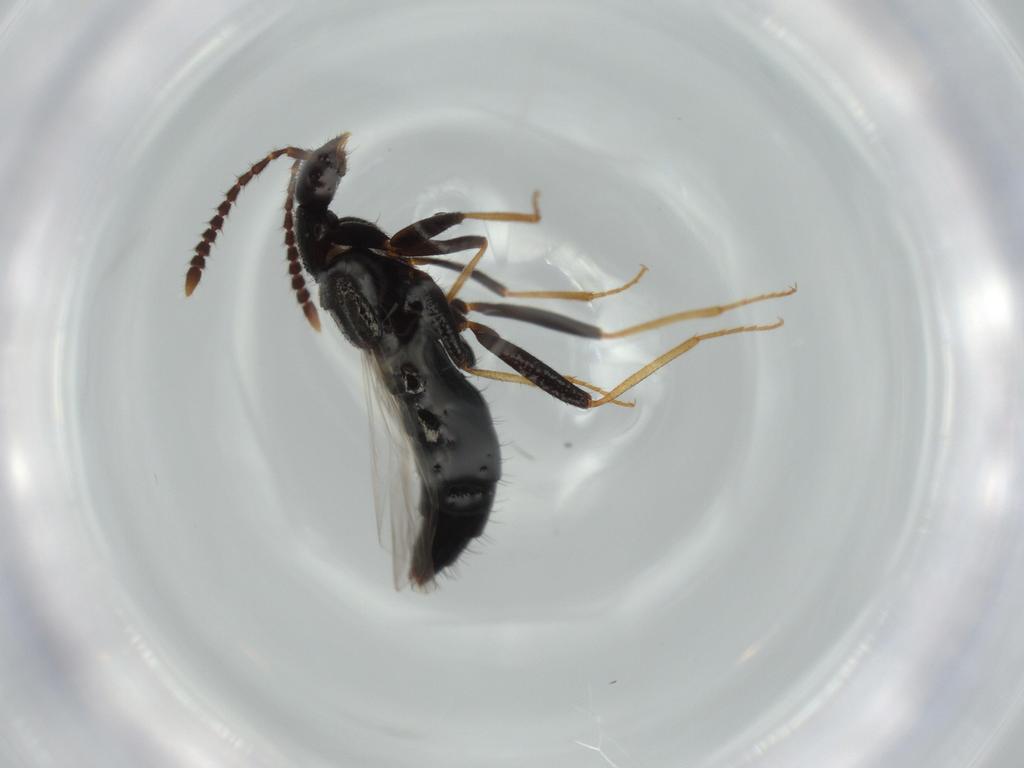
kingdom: Animalia
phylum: Arthropoda
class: Insecta
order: Coleoptera
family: Staphylinidae
